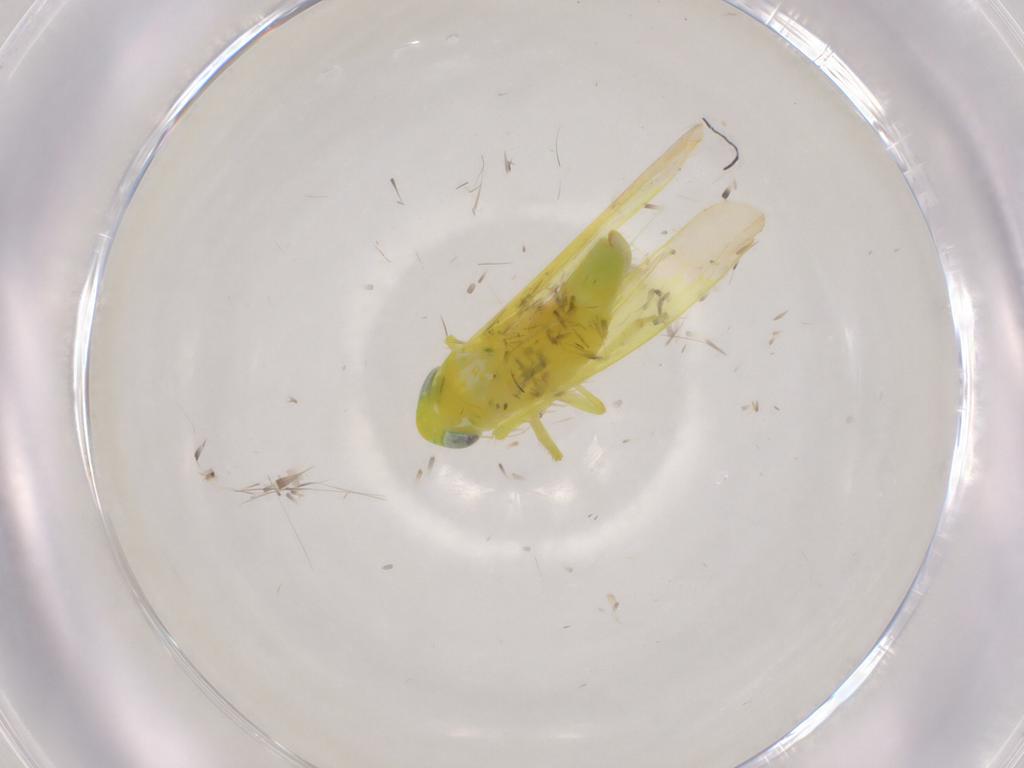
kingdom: Animalia
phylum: Arthropoda
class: Insecta
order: Hemiptera
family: Cicadellidae
